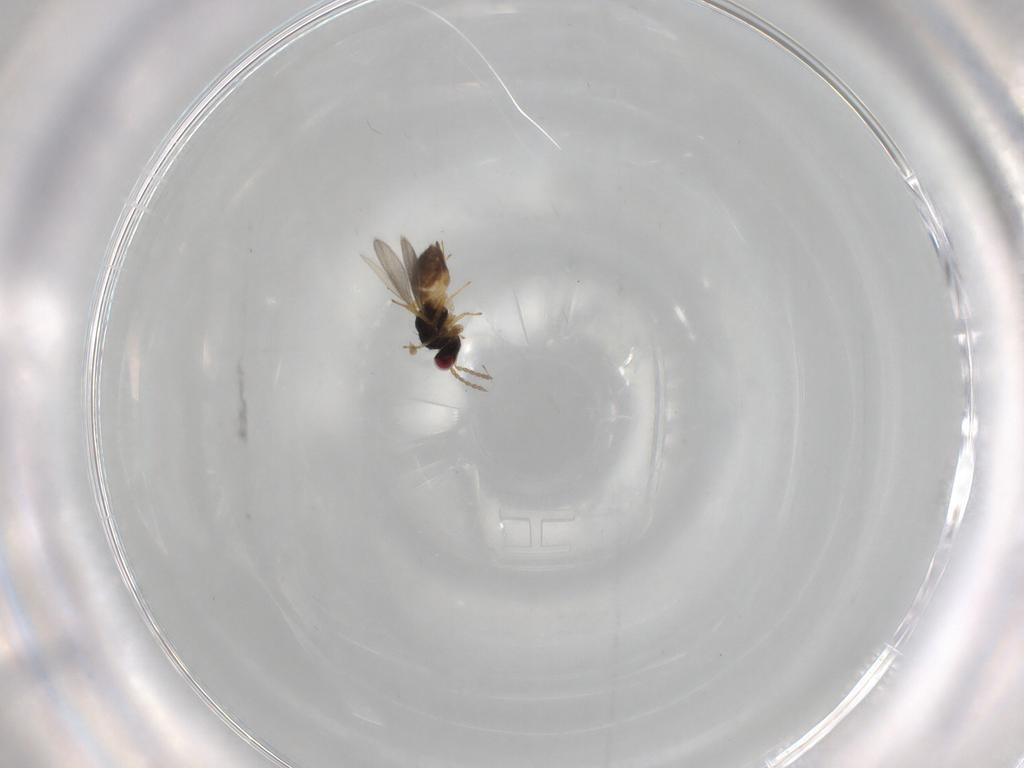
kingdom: Animalia
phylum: Arthropoda
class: Insecta
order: Hymenoptera
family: Eulophidae
